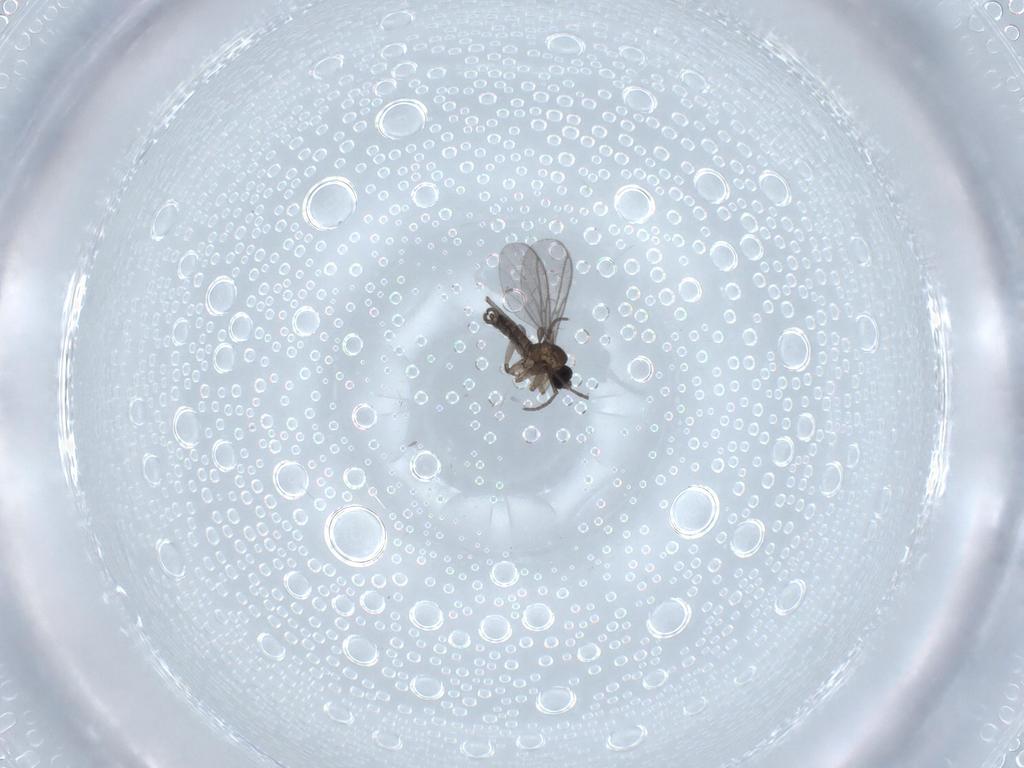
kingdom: Animalia
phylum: Arthropoda
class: Insecta
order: Diptera
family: Ceratopogonidae
